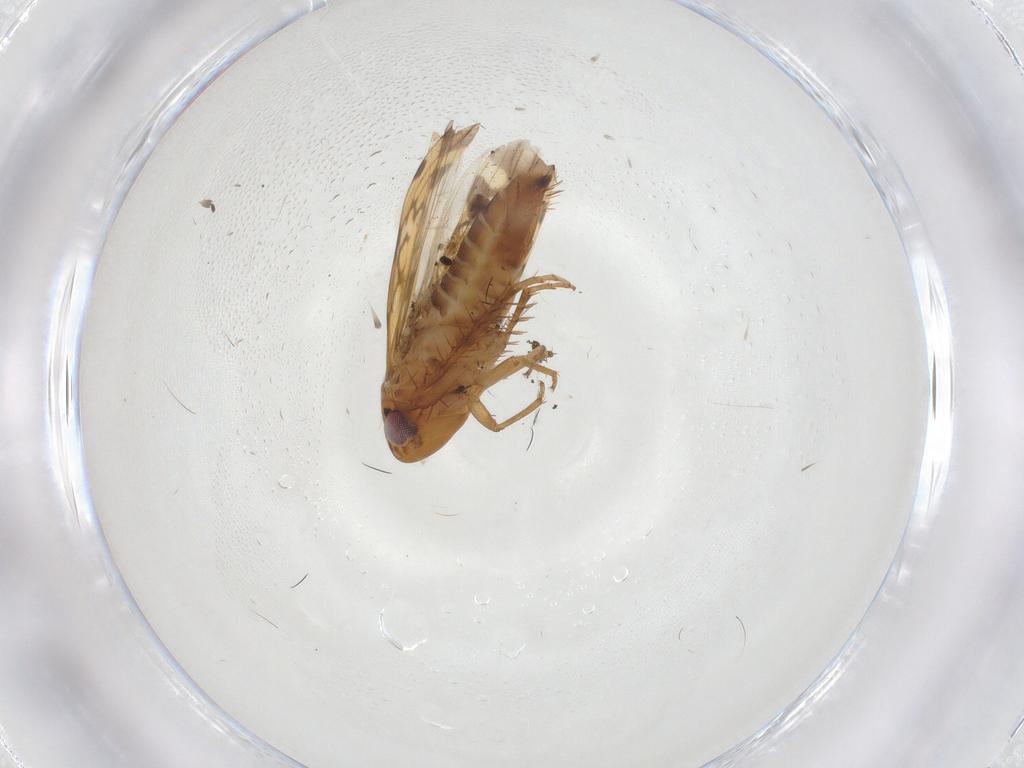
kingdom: Animalia
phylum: Arthropoda
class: Insecta
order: Hemiptera
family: Cicadellidae
